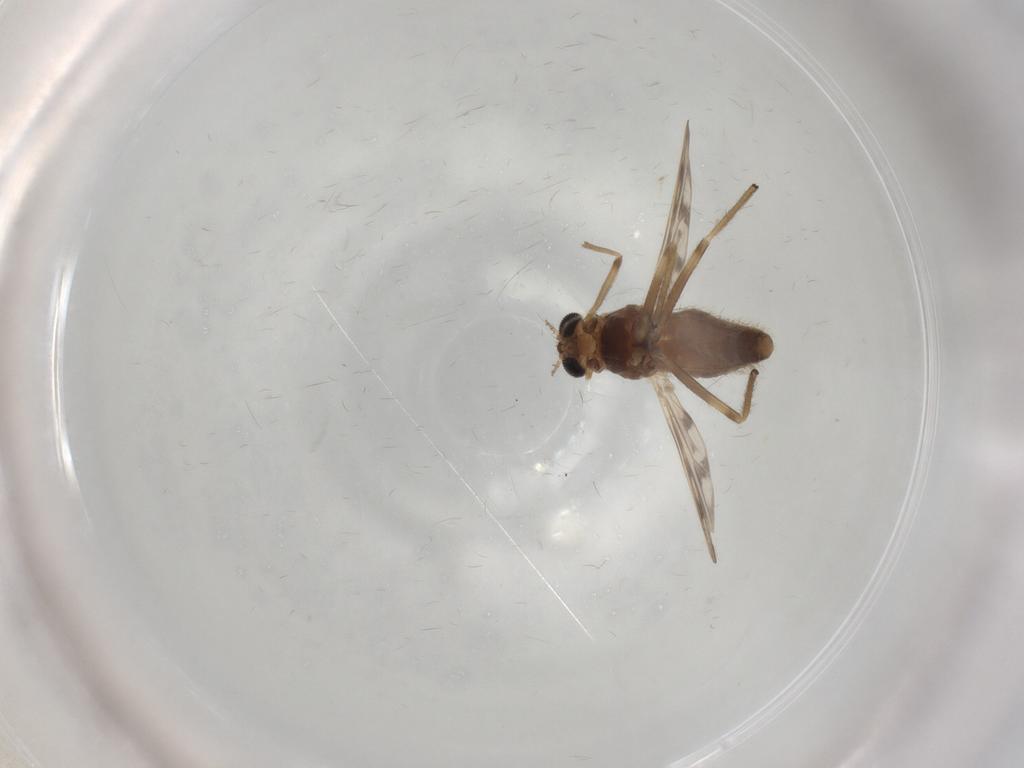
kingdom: Animalia
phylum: Arthropoda
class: Insecta
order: Diptera
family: Chironomidae
